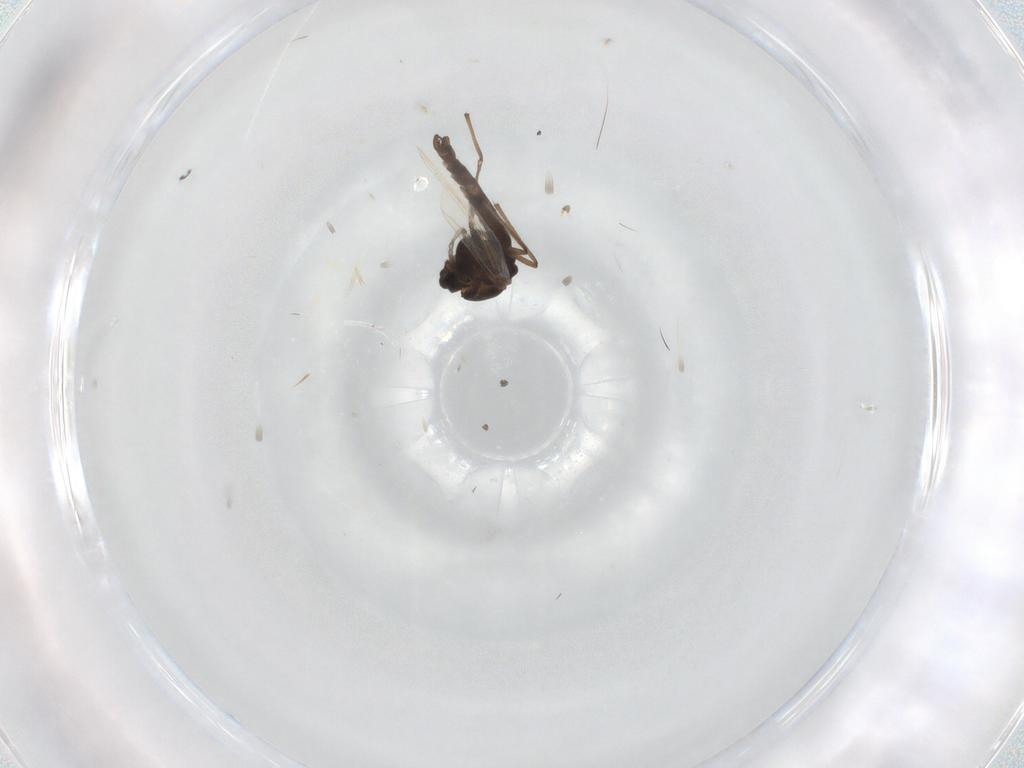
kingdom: Animalia
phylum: Arthropoda
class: Insecta
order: Diptera
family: Chironomidae
